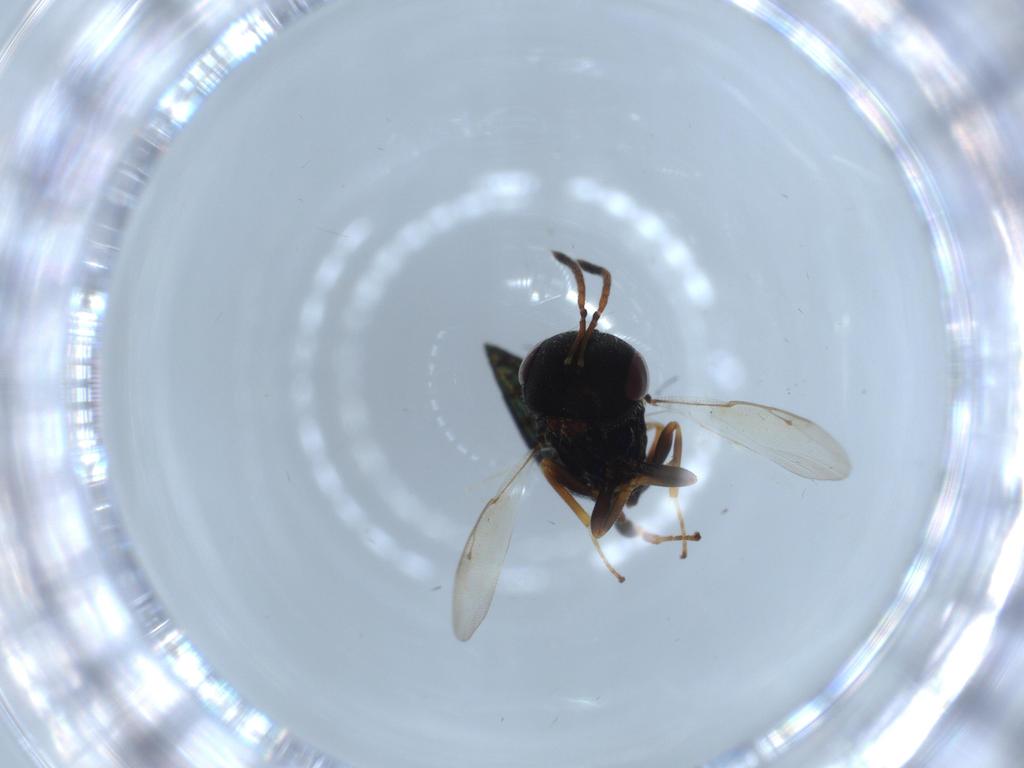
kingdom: Animalia
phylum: Arthropoda
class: Insecta
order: Hymenoptera
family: Pteromalidae
